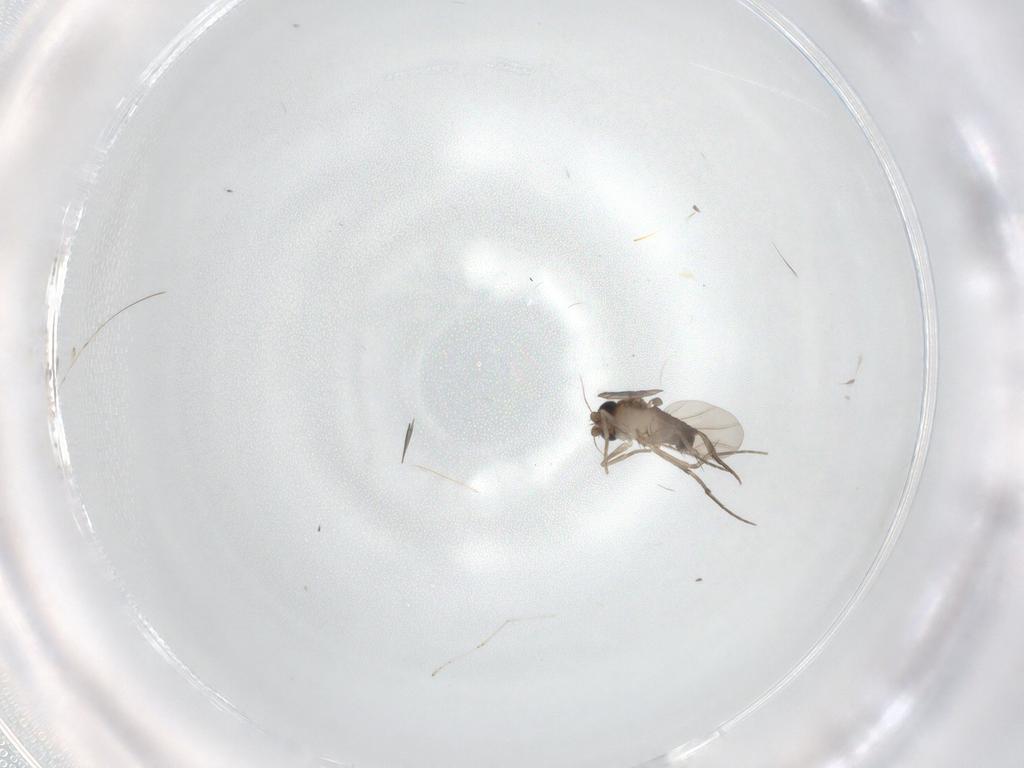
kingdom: Animalia
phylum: Arthropoda
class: Insecta
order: Diptera
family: Phoridae
